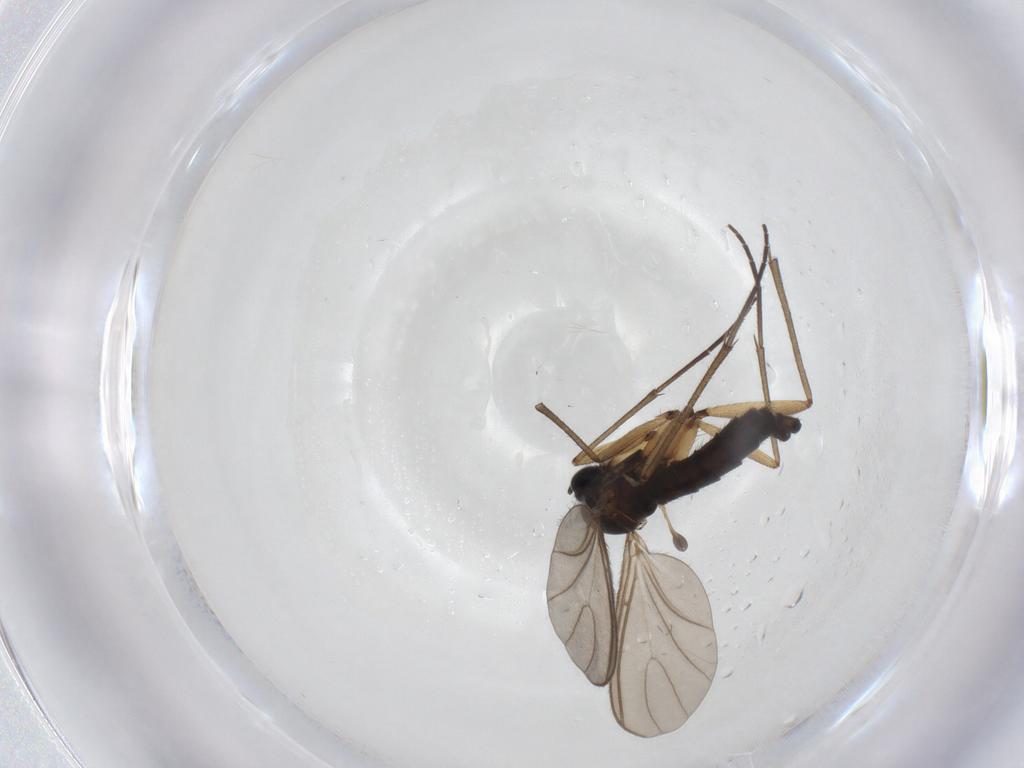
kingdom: Animalia
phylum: Arthropoda
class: Insecta
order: Diptera
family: Sciaridae
